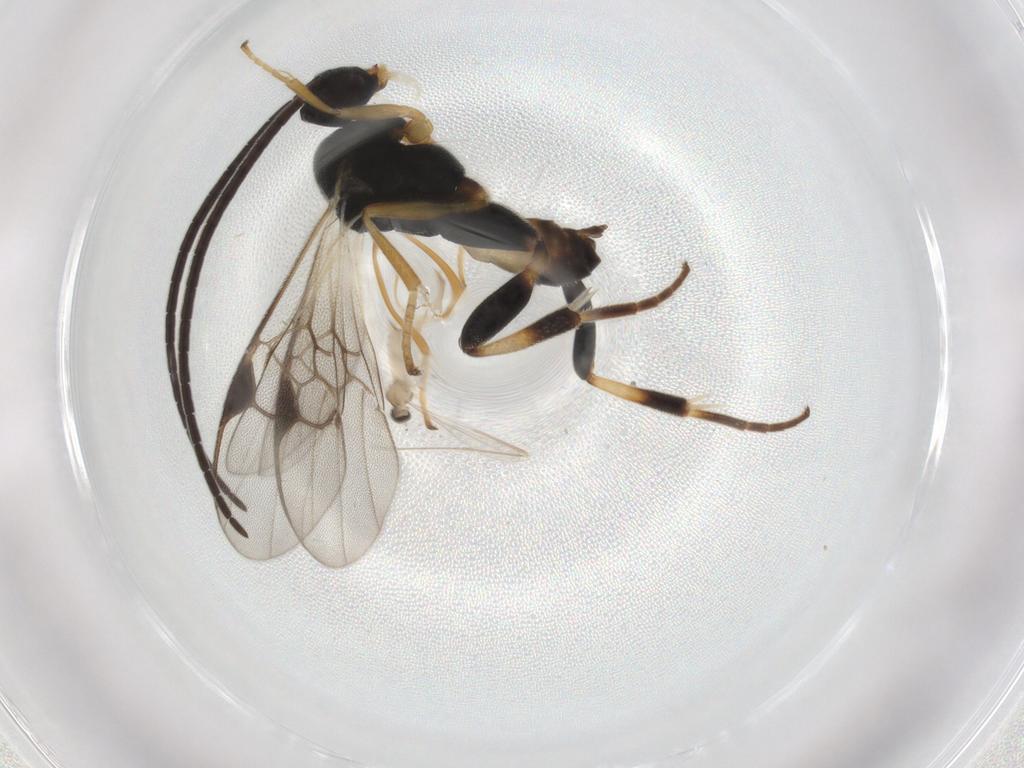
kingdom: Animalia
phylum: Arthropoda
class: Insecta
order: Hymenoptera
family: Braconidae
